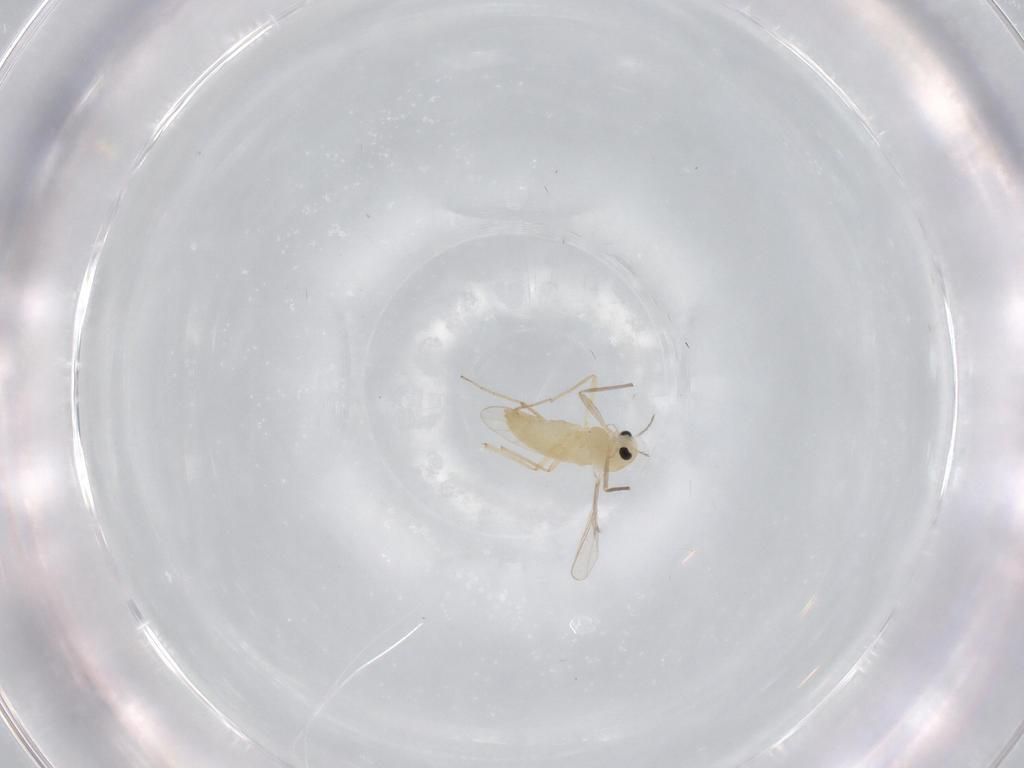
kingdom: Animalia
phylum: Arthropoda
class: Insecta
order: Diptera
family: Chironomidae
